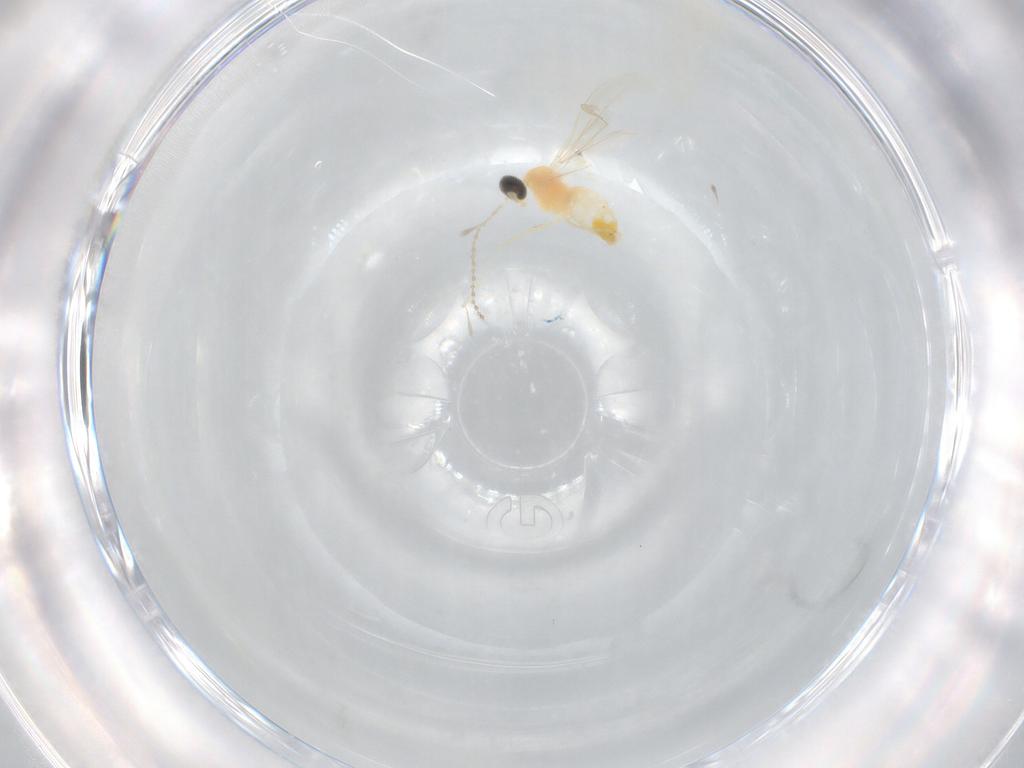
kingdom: Animalia
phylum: Arthropoda
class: Insecta
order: Diptera
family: Cecidomyiidae
